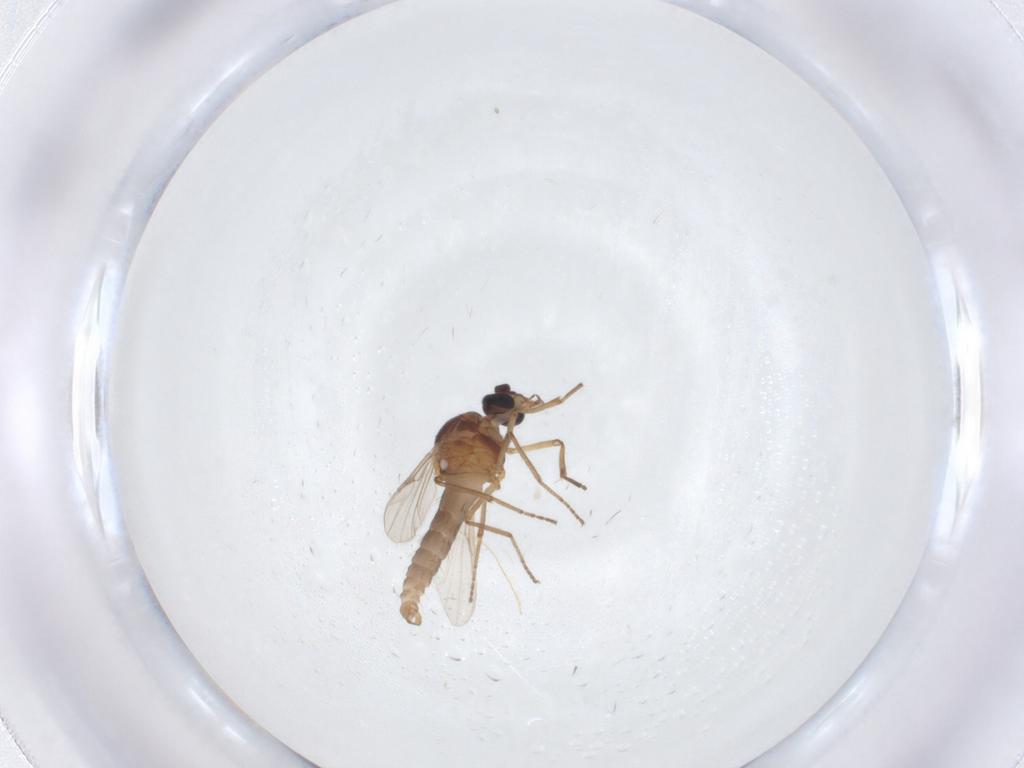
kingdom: Animalia
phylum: Arthropoda
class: Insecta
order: Diptera
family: Ceratopogonidae
